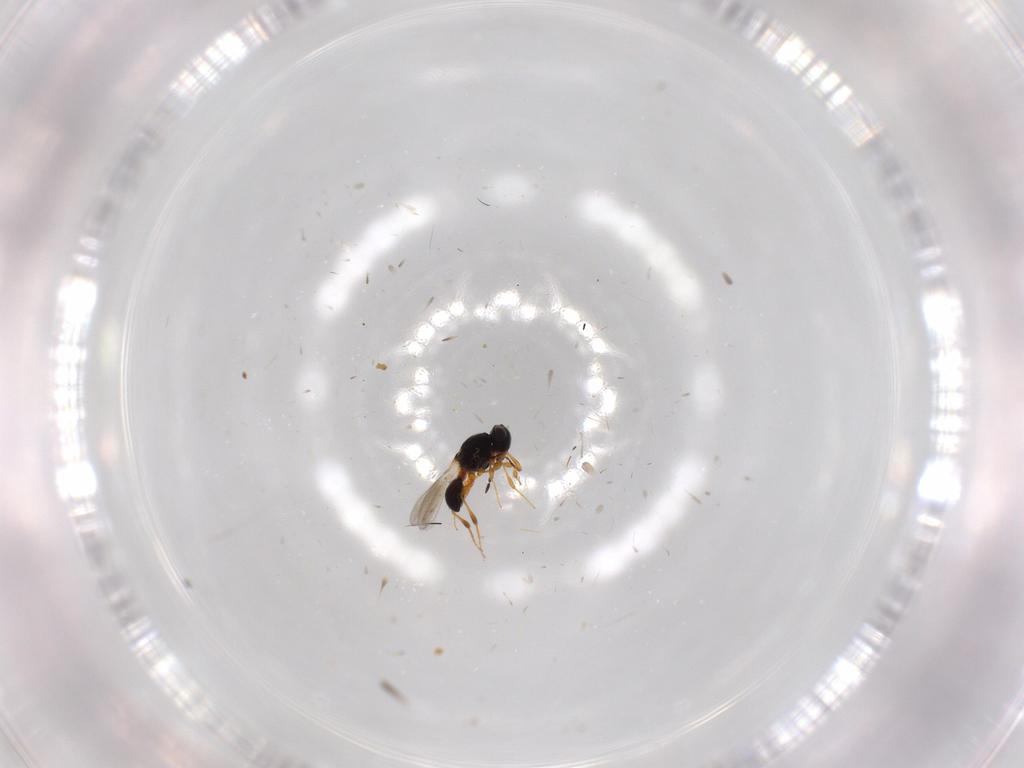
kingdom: Animalia
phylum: Arthropoda
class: Insecta
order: Hymenoptera
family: Platygastridae
